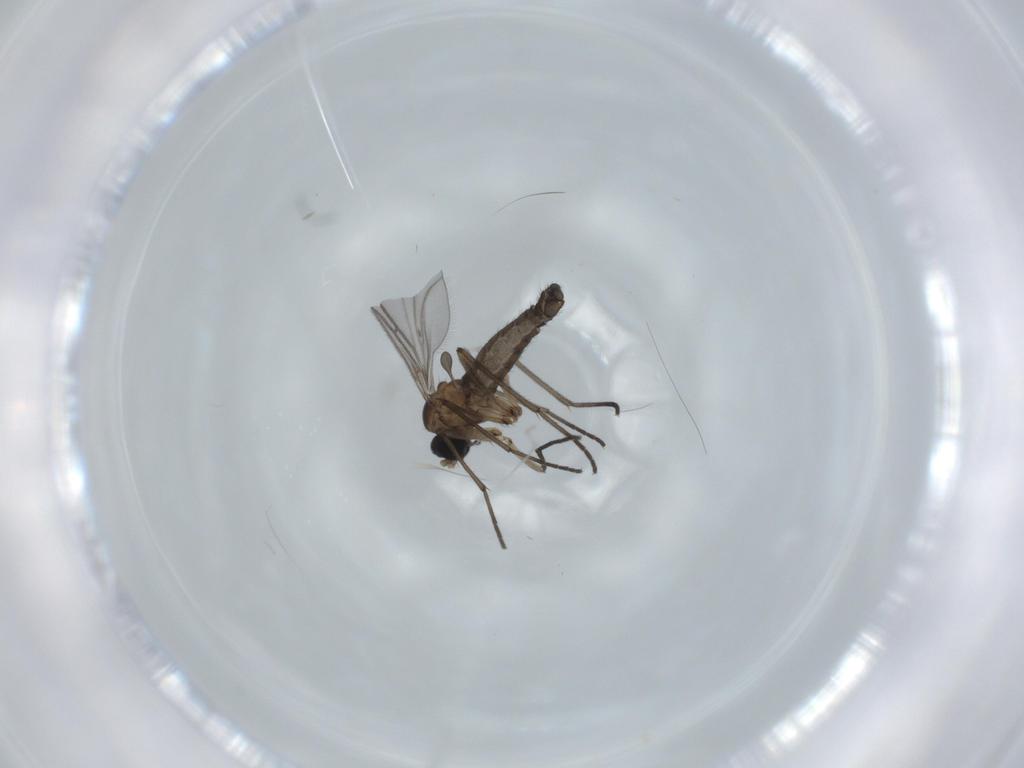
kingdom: Animalia
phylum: Arthropoda
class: Insecta
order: Diptera
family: Sciaridae
